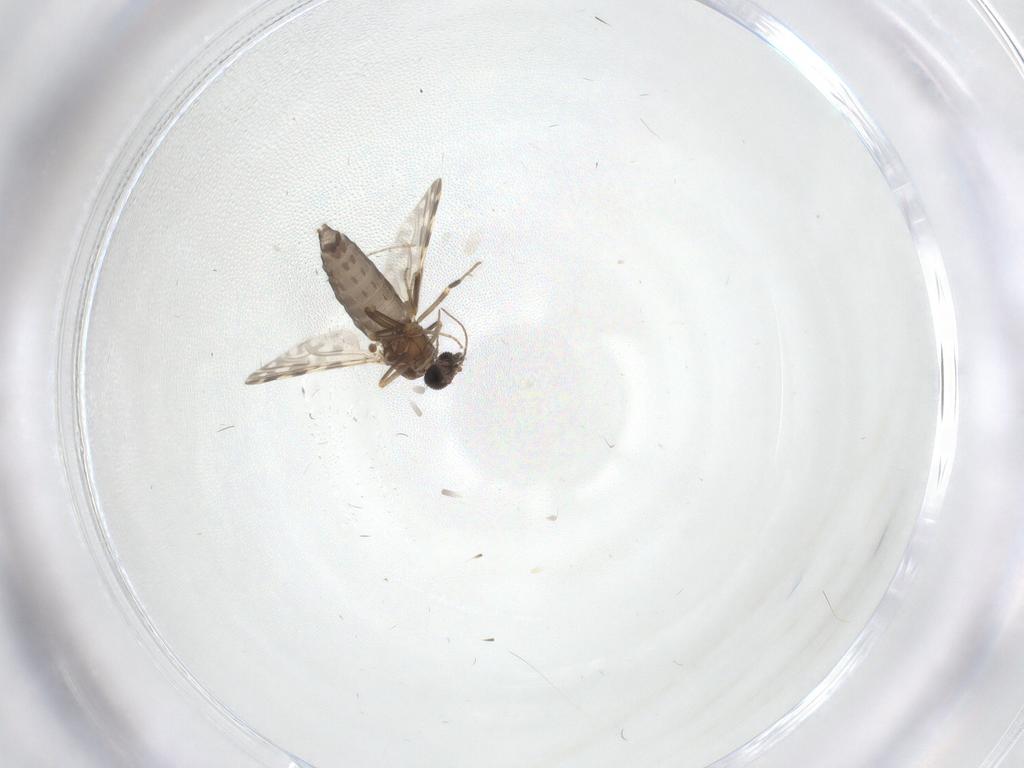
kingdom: Animalia
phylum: Arthropoda
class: Insecta
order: Diptera
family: Cecidomyiidae
